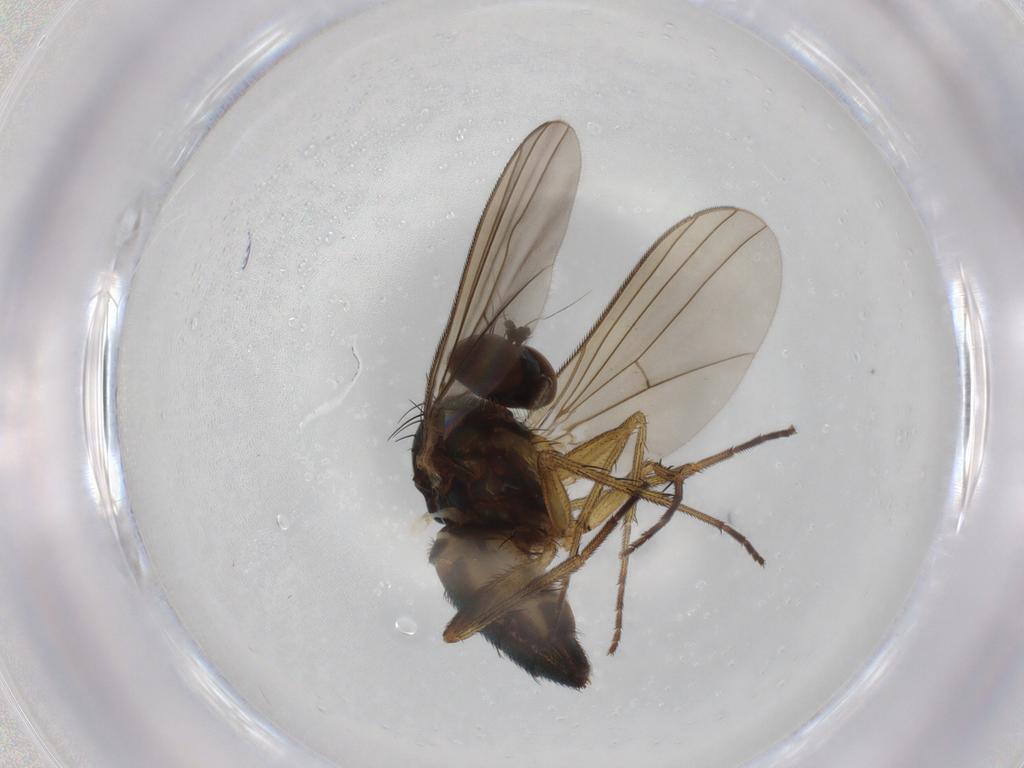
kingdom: Animalia
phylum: Arthropoda
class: Insecta
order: Diptera
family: Dolichopodidae
